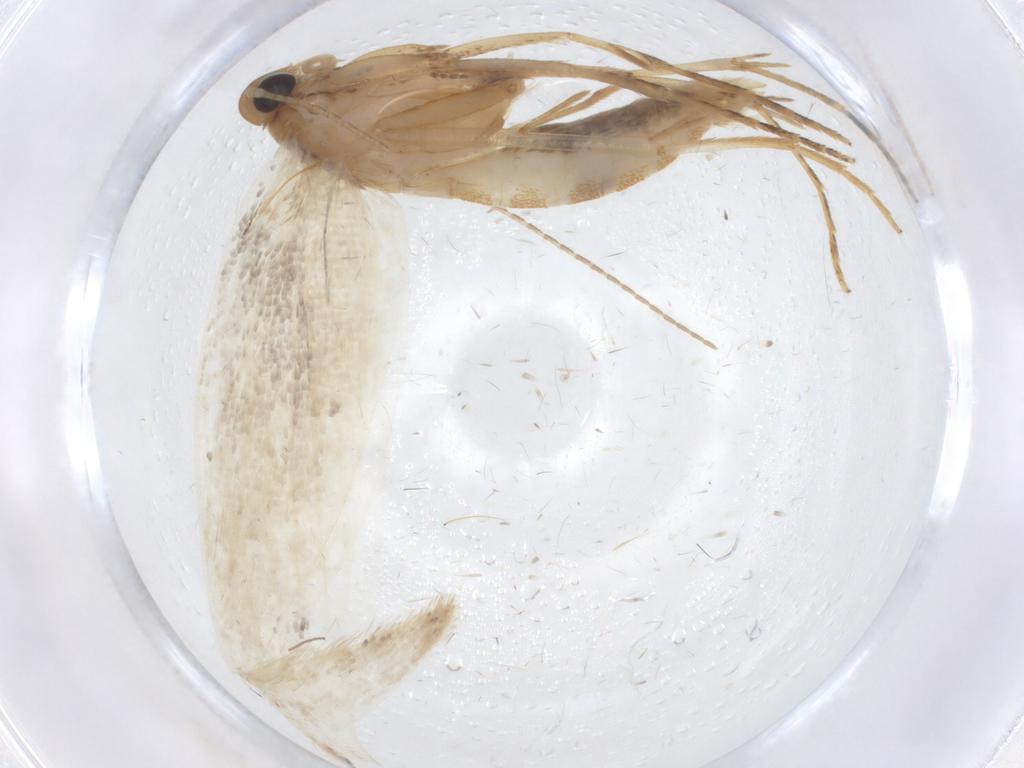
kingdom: Animalia
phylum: Arthropoda
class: Insecta
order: Lepidoptera
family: Oecophoridae
